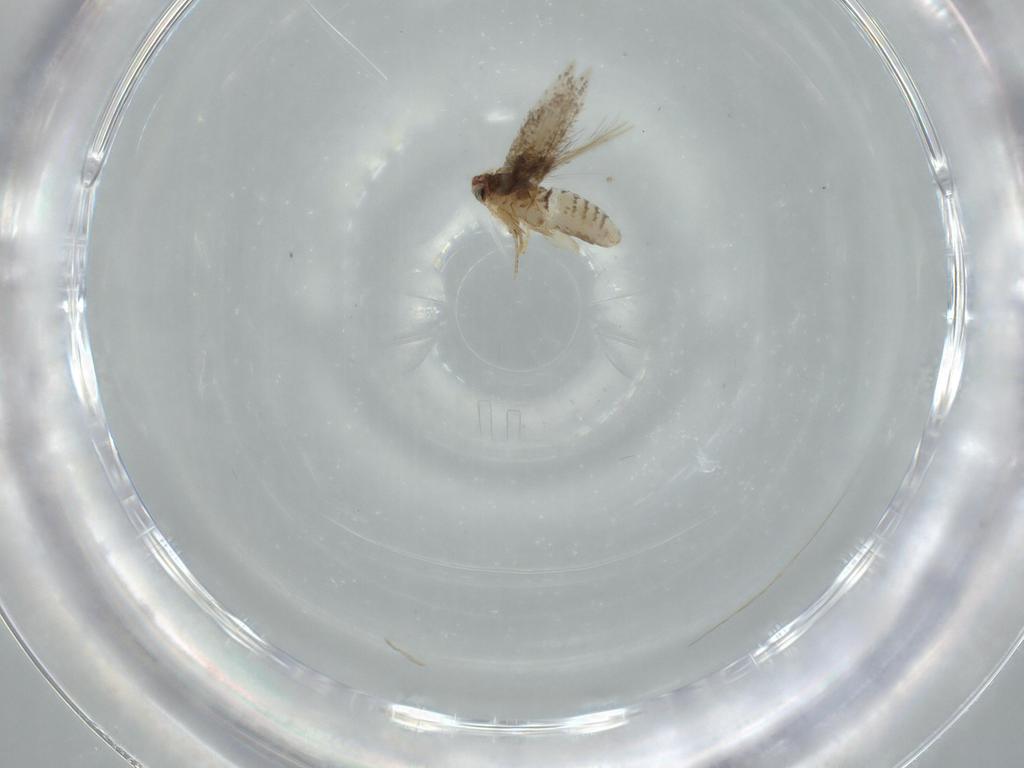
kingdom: Animalia
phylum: Arthropoda
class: Insecta
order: Lepidoptera
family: Nepticulidae
